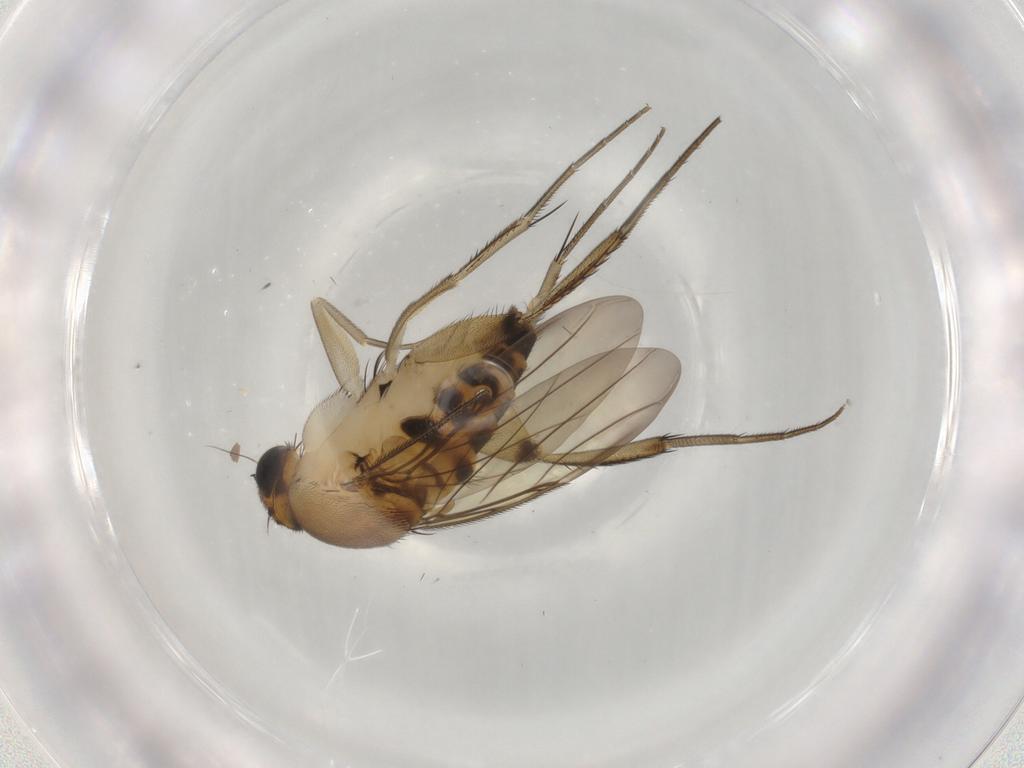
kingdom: Animalia
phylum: Arthropoda
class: Insecta
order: Diptera
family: Phoridae
